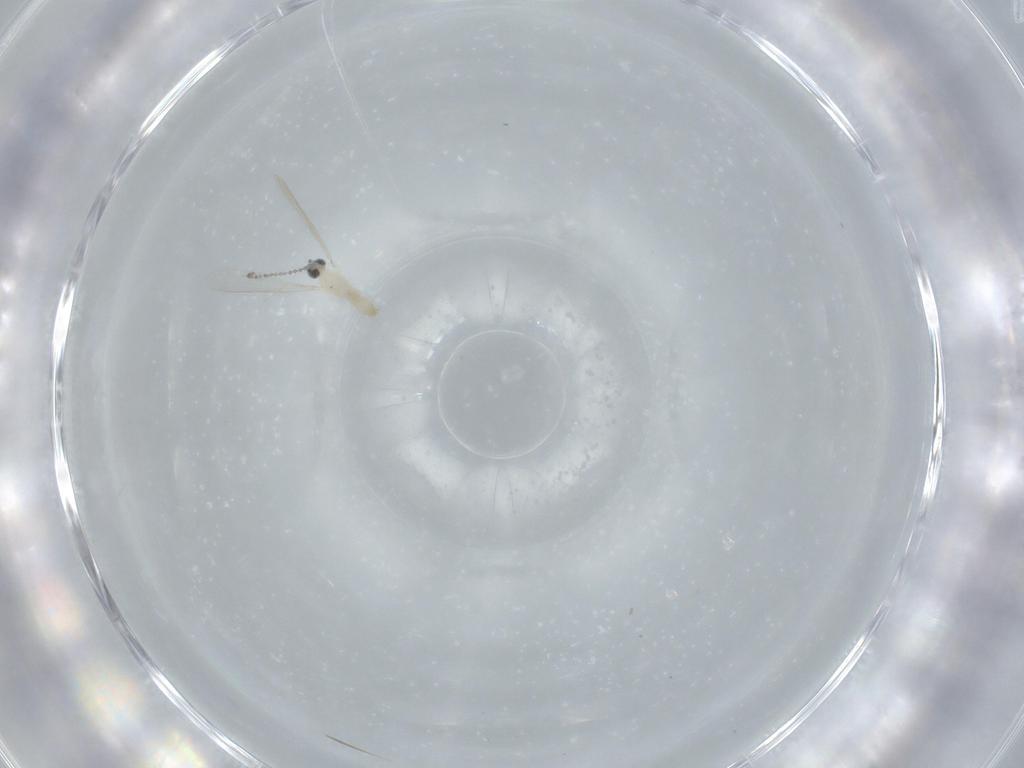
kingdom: Animalia
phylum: Arthropoda
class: Insecta
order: Diptera
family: Cecidomyiidae
